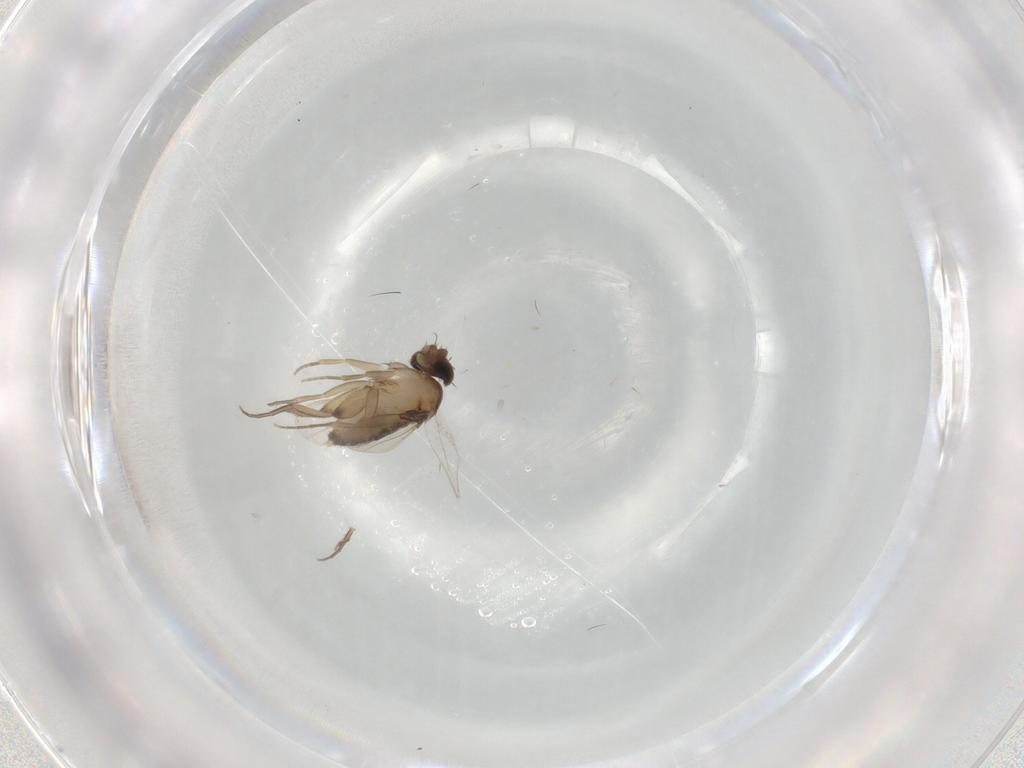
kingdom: Animalia
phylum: Arthropoda
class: Insecta
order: Diptera
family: Phoridae
